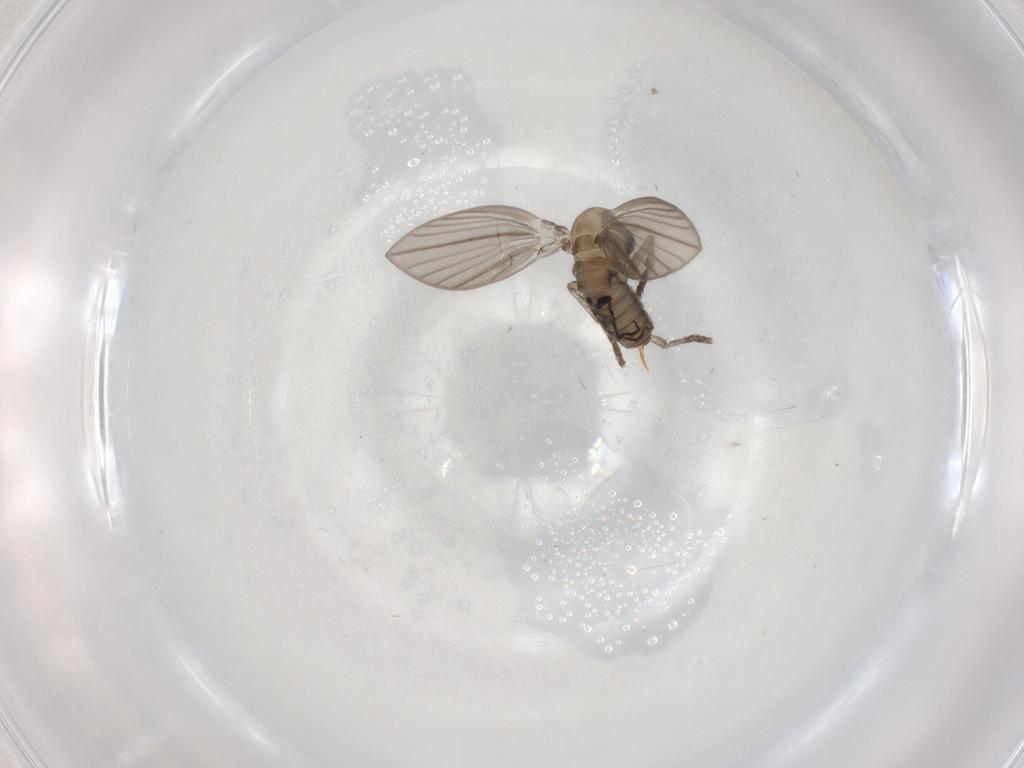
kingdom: Animalia
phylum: Arthropoda
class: Insecta
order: Diptera
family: Psychodidae
